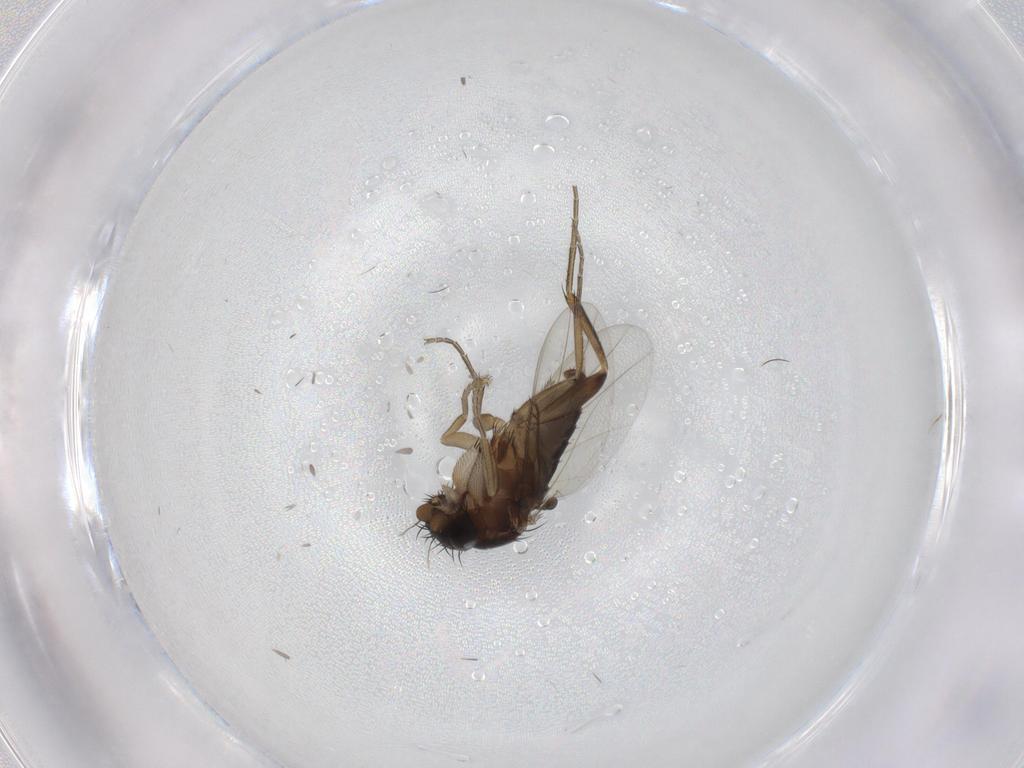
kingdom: Animalia
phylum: Arthropoda
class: Insecta
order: Diptera
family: Phoridae
